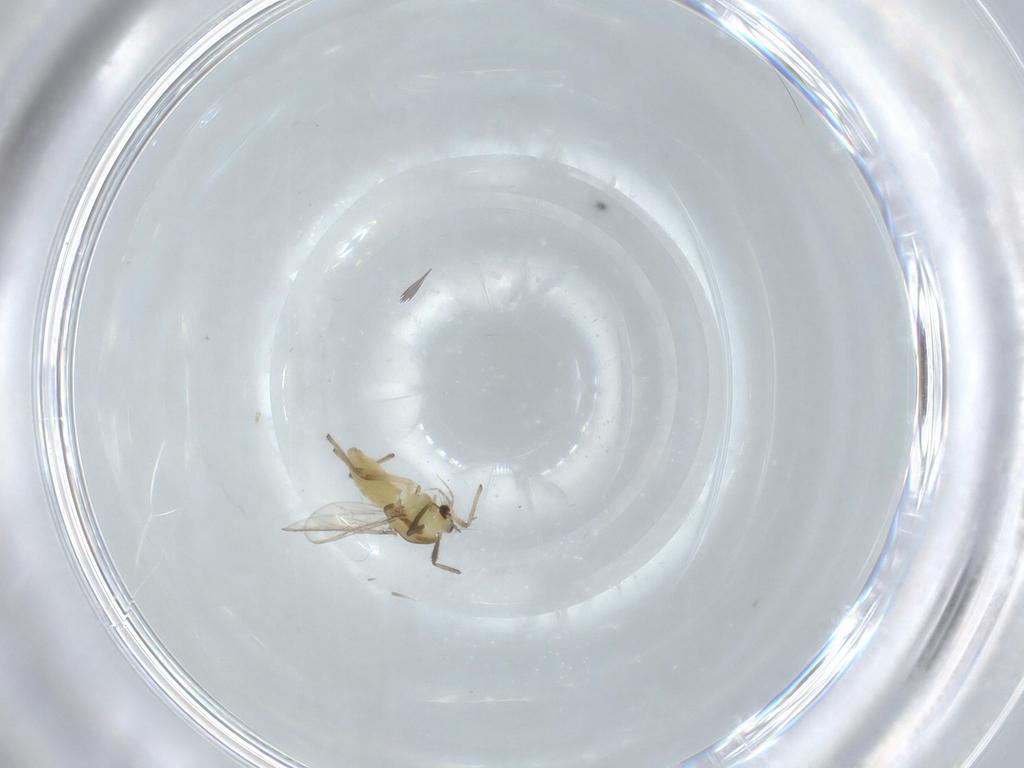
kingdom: Animalia
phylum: Arthropoda
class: Insecta
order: Diptera
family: Chironomidae
